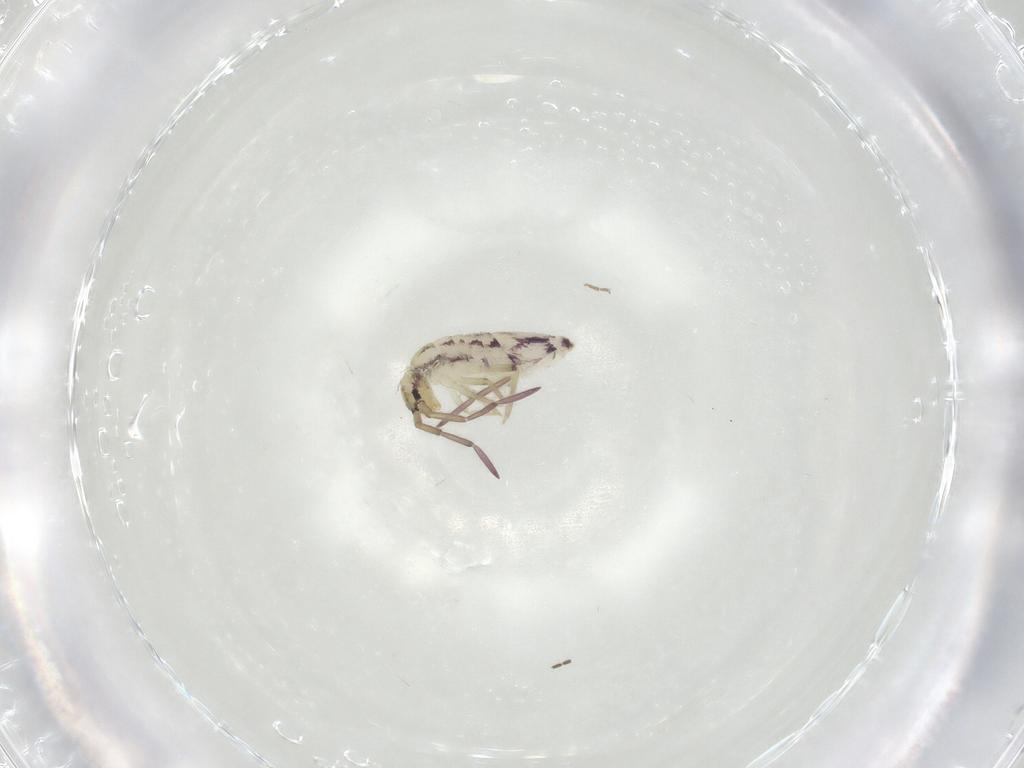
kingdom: Animalia
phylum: Arthropoda
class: Collembola
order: Entomobryomorpha
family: Entomobryidae
